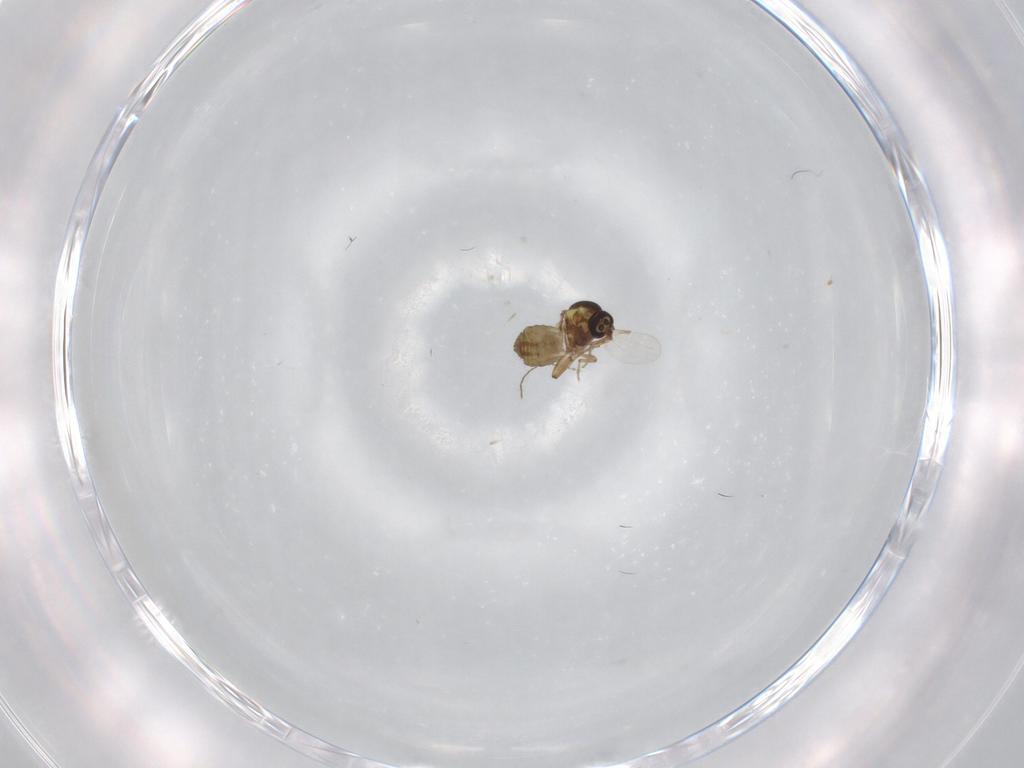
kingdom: Animalia
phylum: Arthropoda
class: Insecta
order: Diptera
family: Ceratopogonidae
